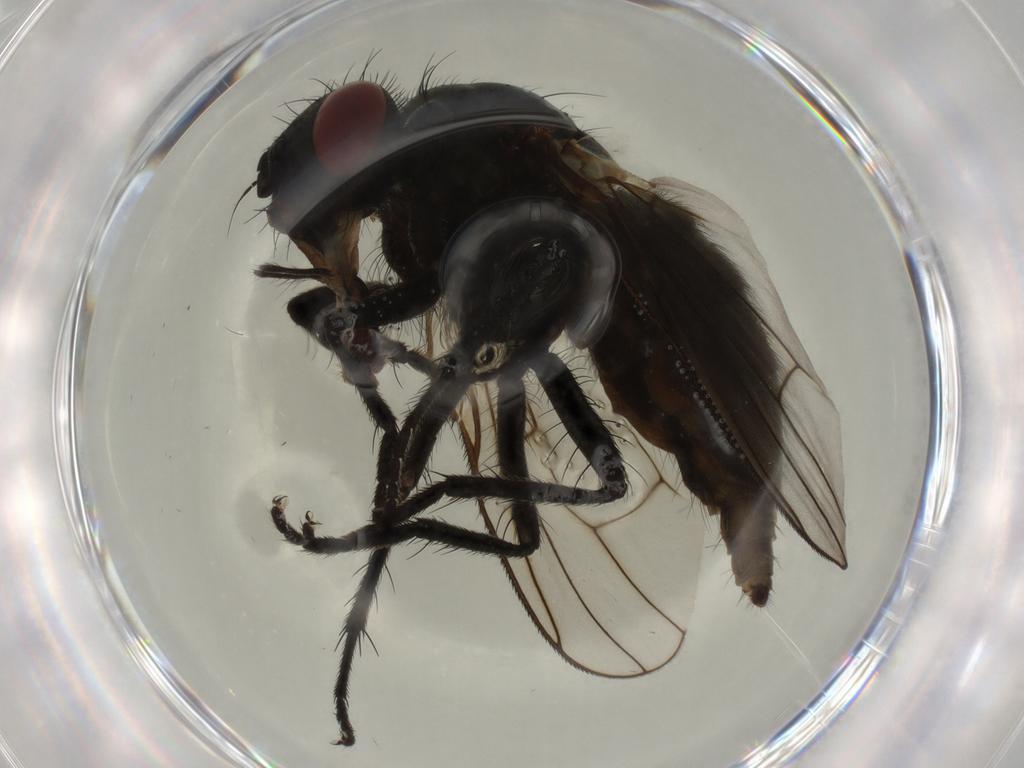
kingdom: Animalia
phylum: Arthropoda
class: Insecta
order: Diptera
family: Muscidae
